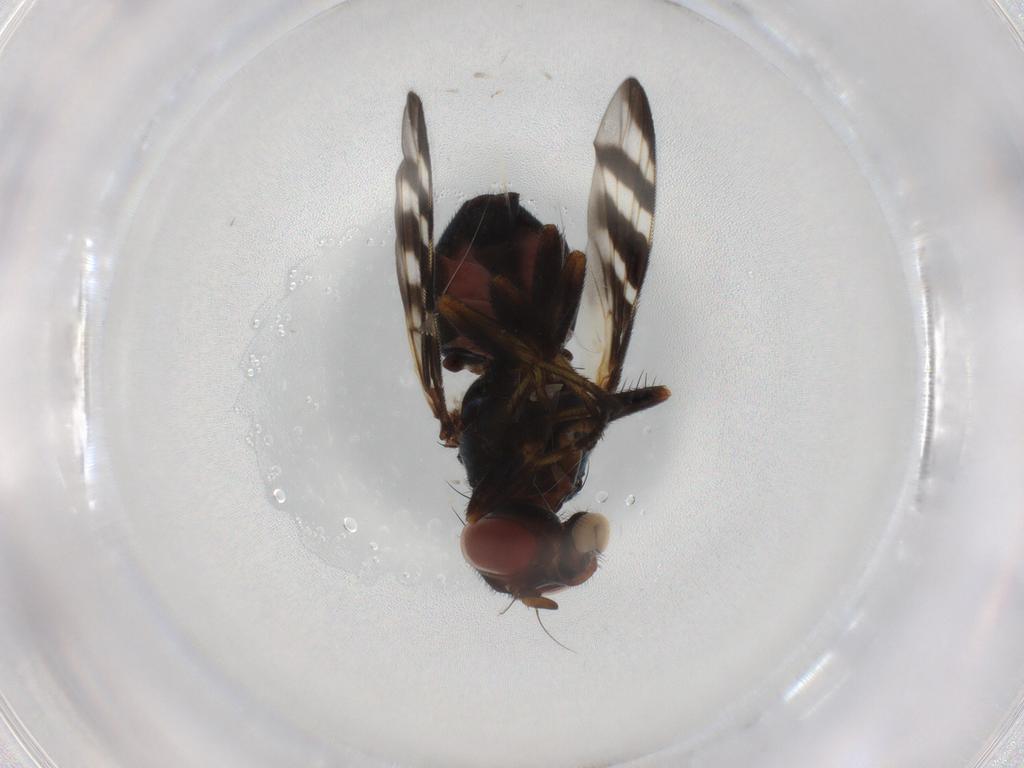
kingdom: Animalia
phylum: Arthropoda
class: Insecta
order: Diptera
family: Platystomatidae
